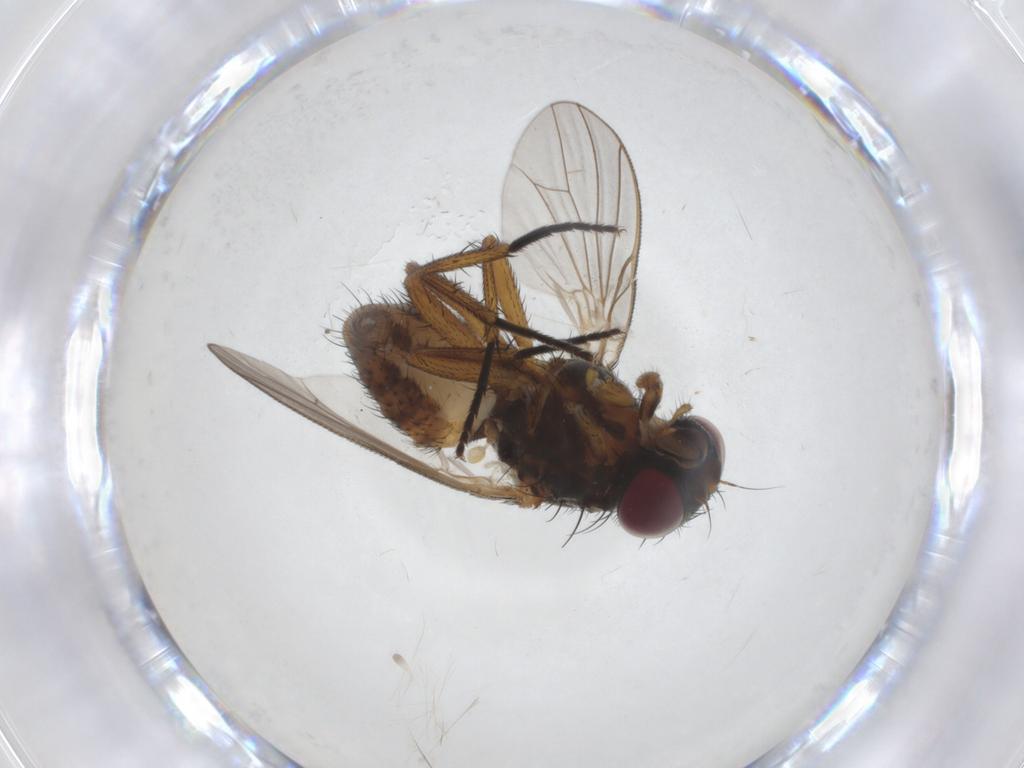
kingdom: Animalia
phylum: Arthropoda
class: Insecta
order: Diptera
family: Fannia
